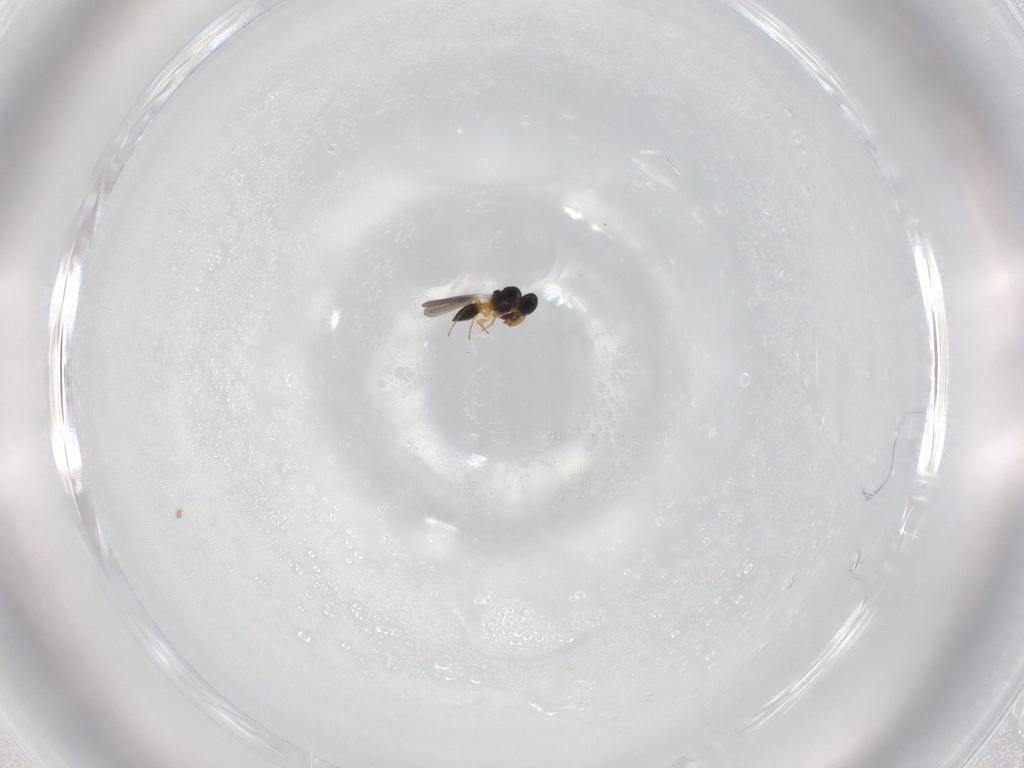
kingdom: Animalia
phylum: Arthropoda
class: Insecta
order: Hymenoptera
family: Platygastridae
